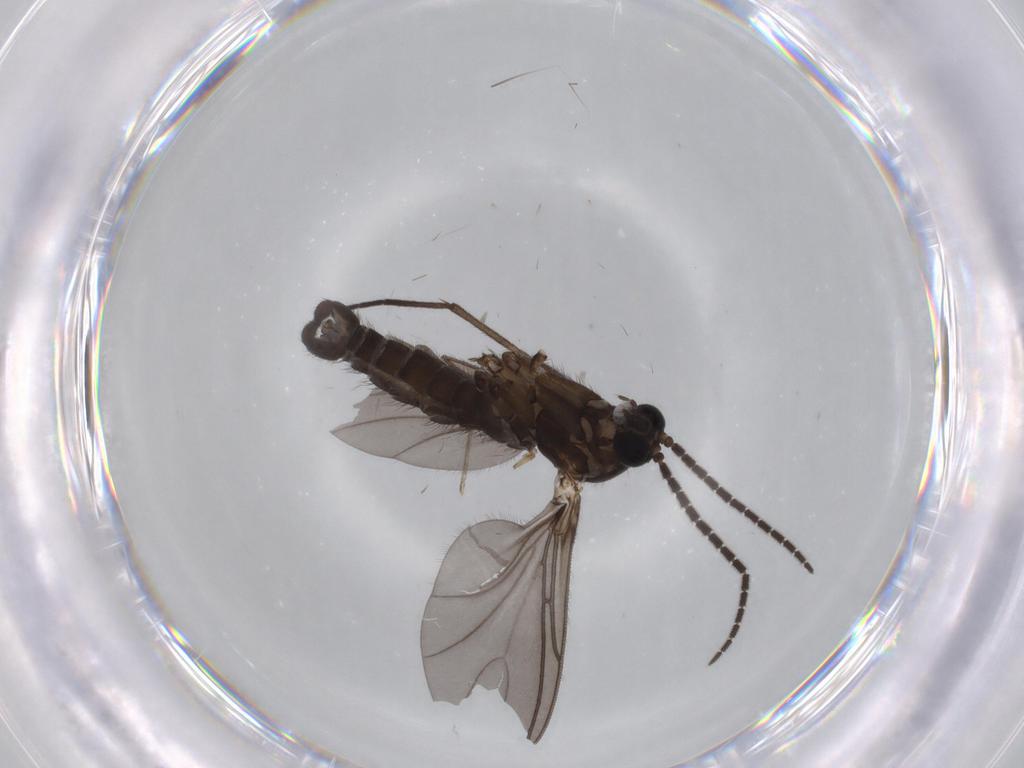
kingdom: Animalia
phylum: Arthropoda
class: Insecta
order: Diptera
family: Sciaridae
